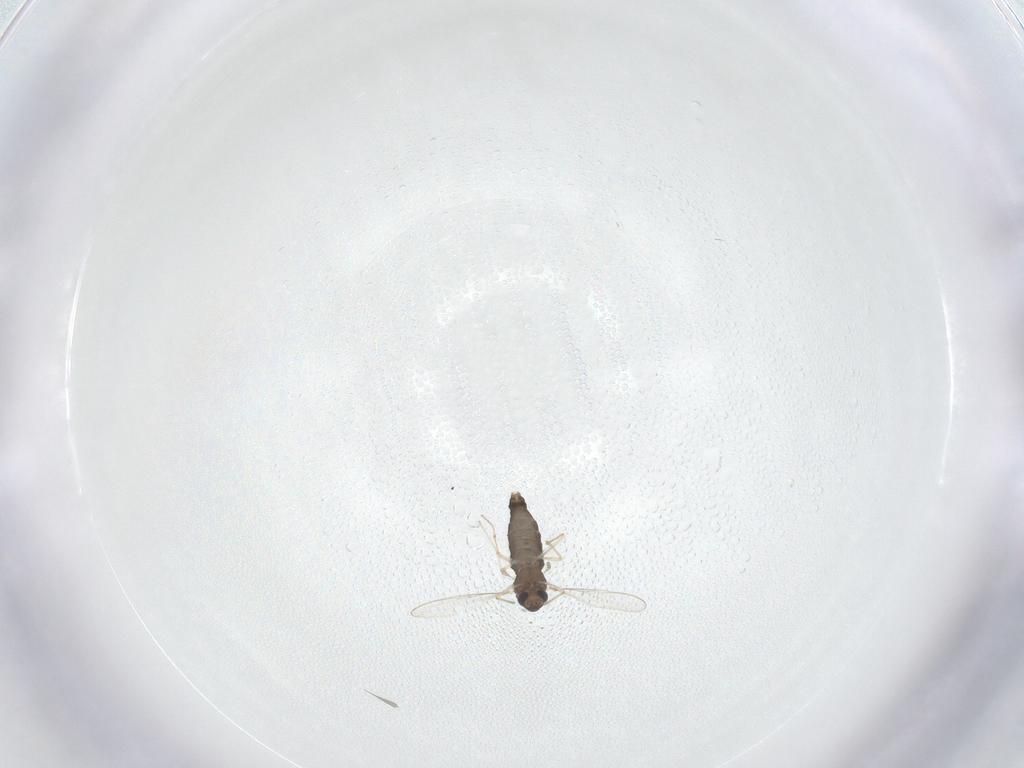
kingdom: Animalia
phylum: Arthropoda
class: Insecta
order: Diptera
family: Chironomidae
